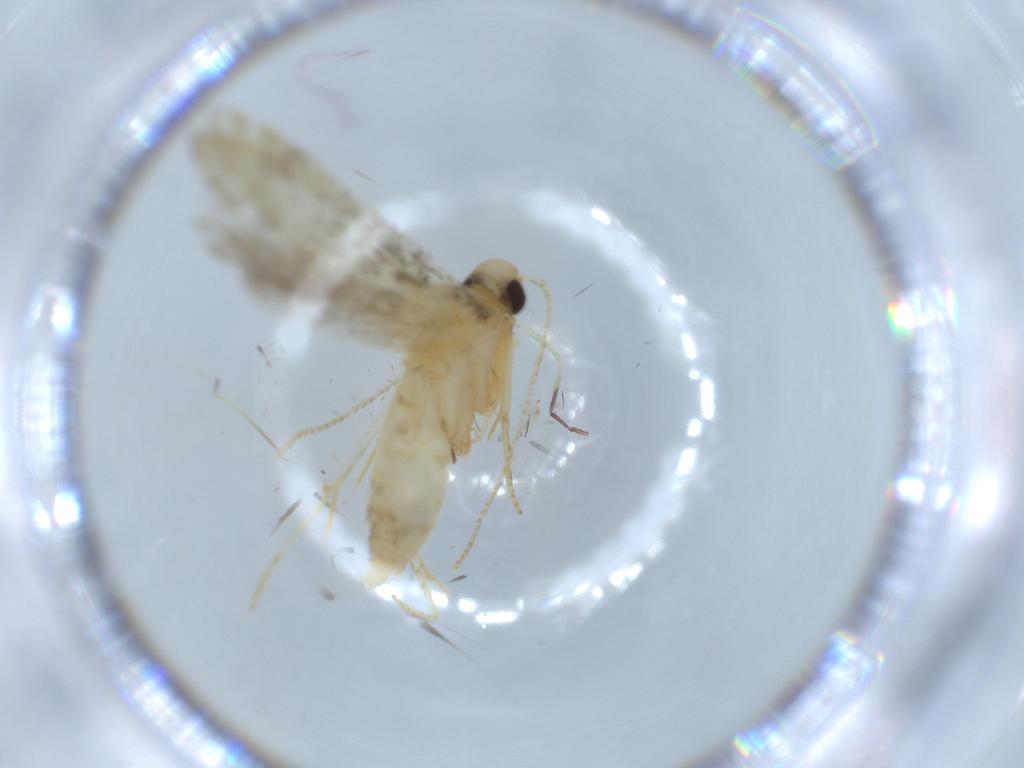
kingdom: Animalia
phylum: Arthropoda
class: Insecta
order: Lepidoptera
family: Autostichidae
